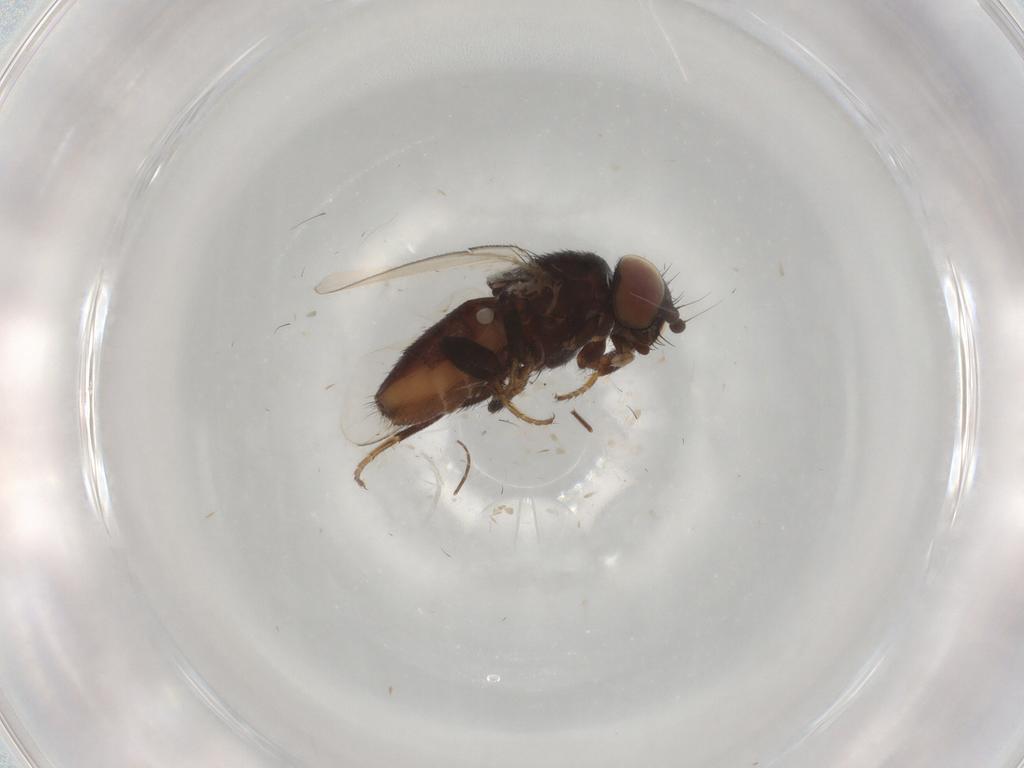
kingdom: Animalia
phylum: Arthropoda
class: Insecta
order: Diptera
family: Milichiidae
